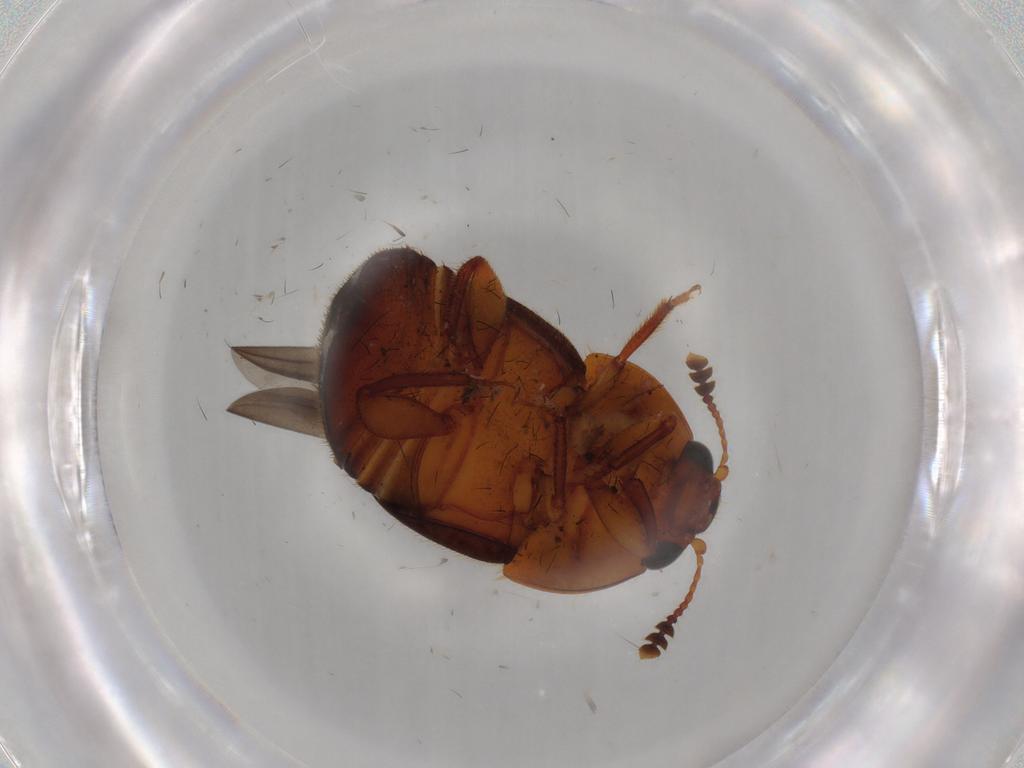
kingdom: Animalia
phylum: Arthropoda
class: Insecta
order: Coleoptera
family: Nitidulidae
